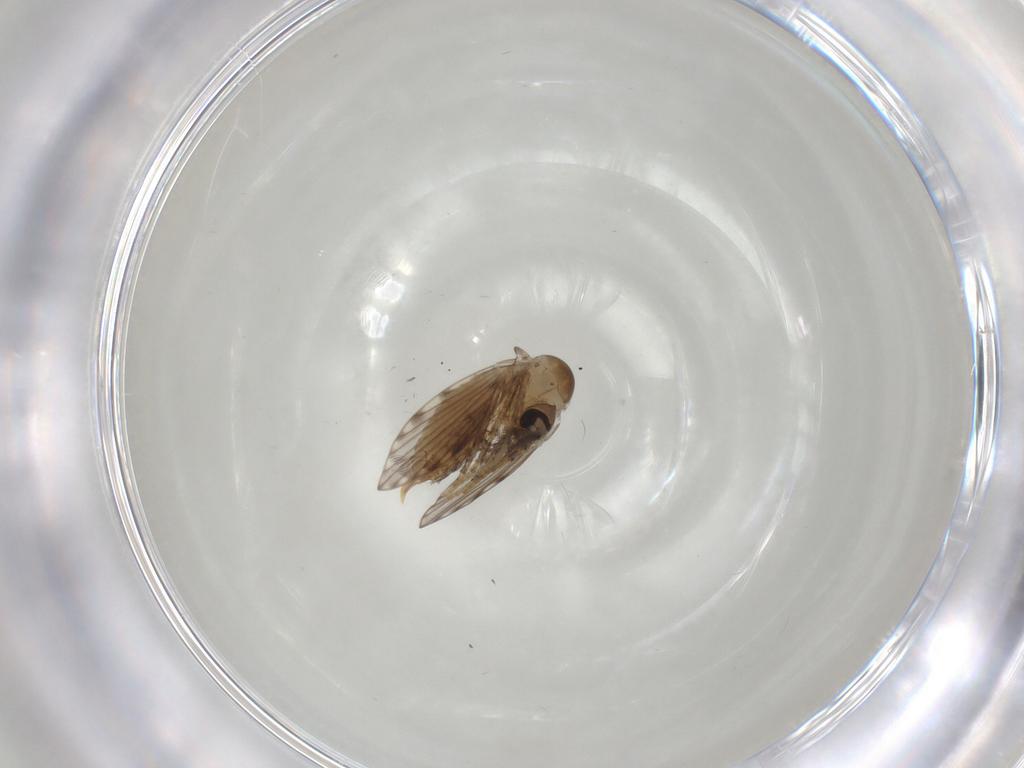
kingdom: Animalia
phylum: Arthropoda
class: Insecta
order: Diptera
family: Psychodidae
